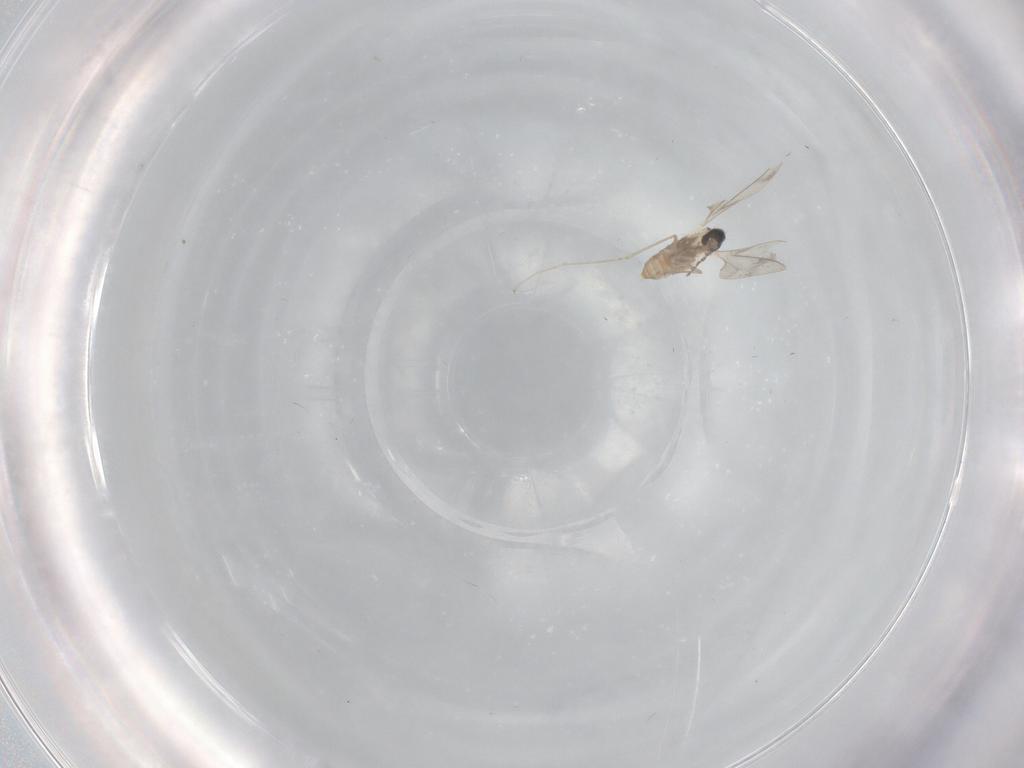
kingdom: Animalia
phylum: Arthropoda
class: Insecta
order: Diptera
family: Cecidomyiidae
